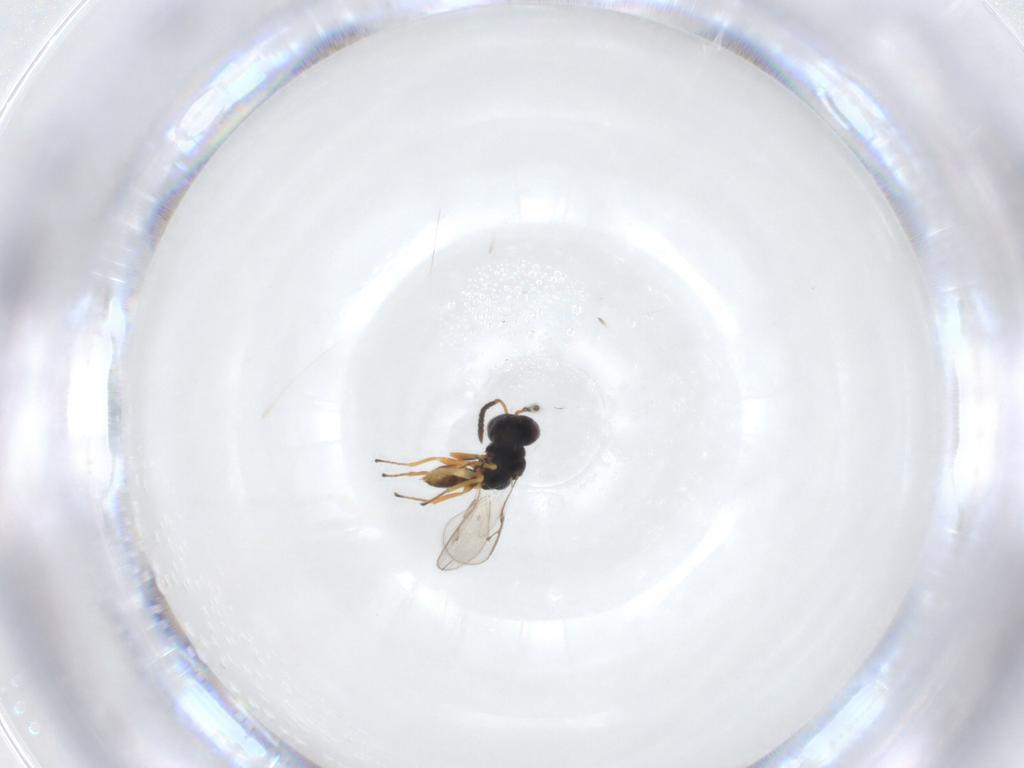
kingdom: Animalia
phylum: Arthropoda
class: Insecta
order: Hymenoptera
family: Pteromalidae
